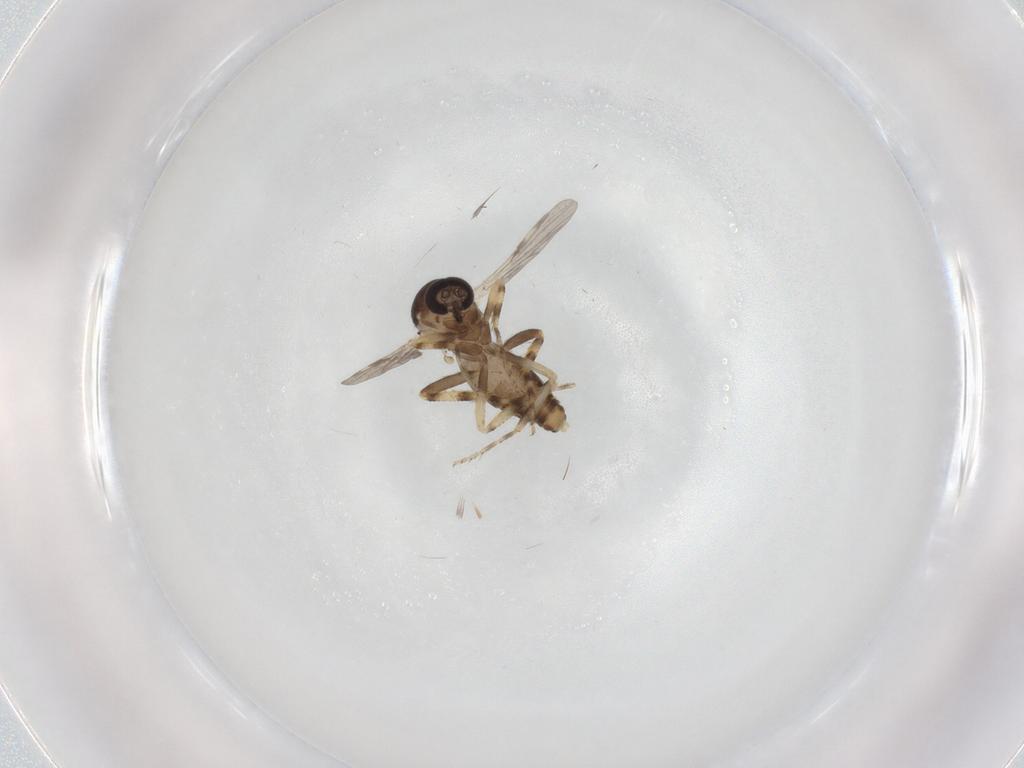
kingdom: Animalia
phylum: Arthropoda
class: Insecta
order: Diptera
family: Ceratopogonidae
